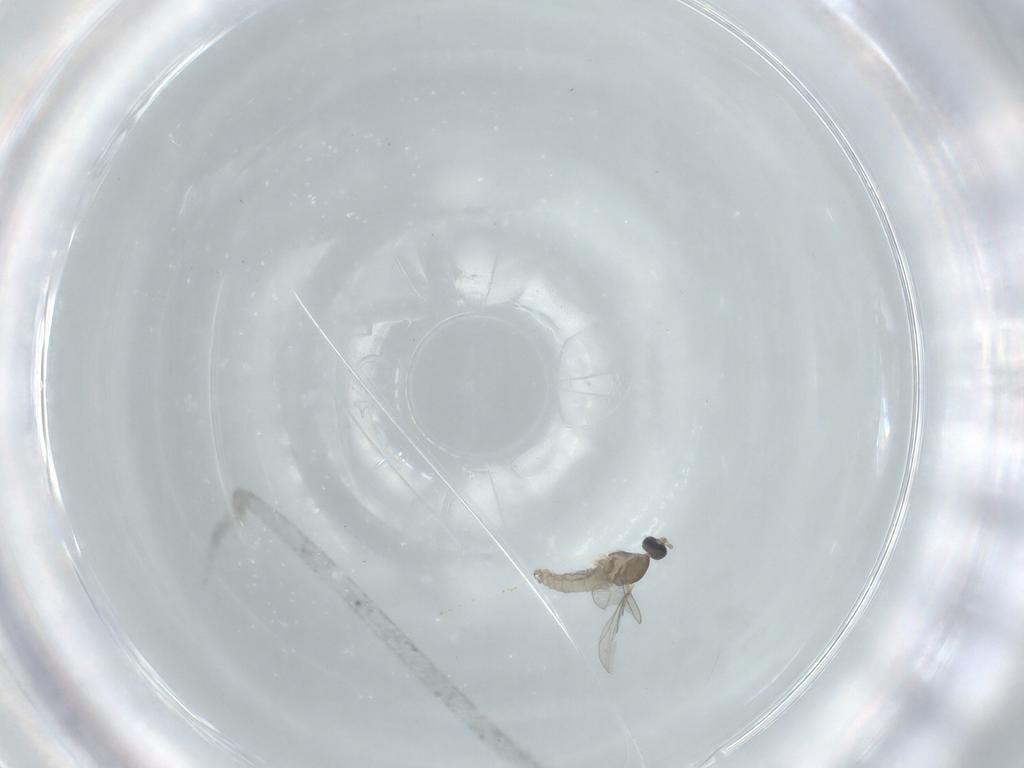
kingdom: Animalia
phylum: Arthropoda
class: Insecta
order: Diptera
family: Cecidomyiidae
